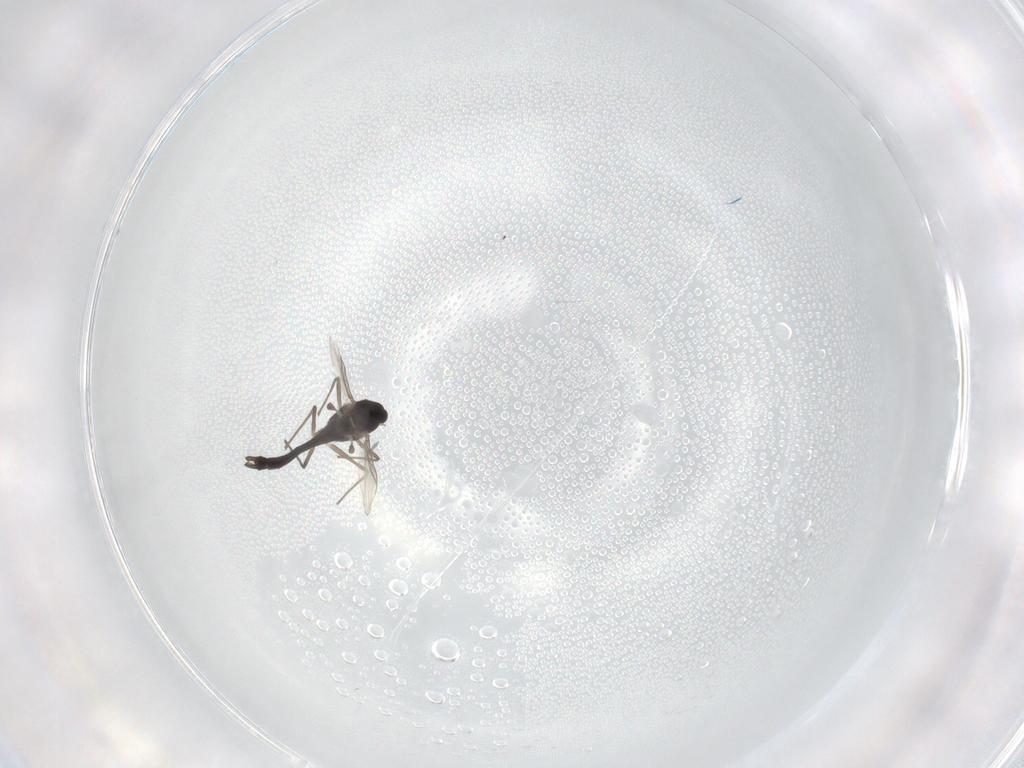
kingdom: Animalia
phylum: Arthropoda
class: Insecta
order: Diptera
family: Chironomidae
